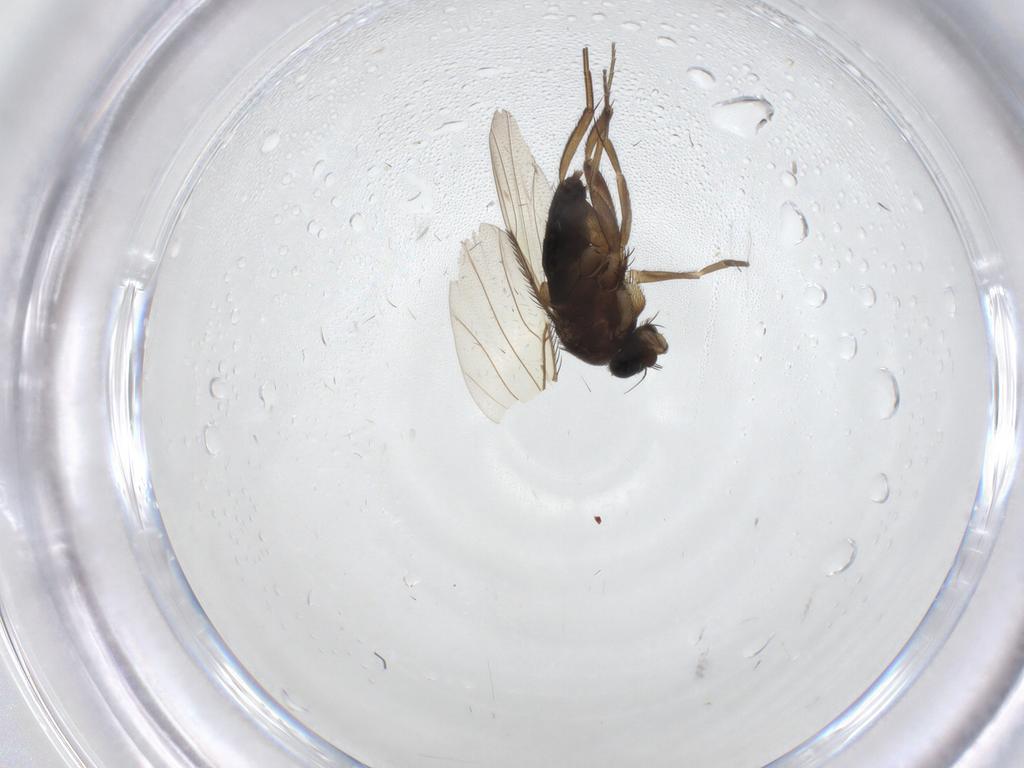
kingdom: Animalia
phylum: Arthropoda
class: Insecta
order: Diptera
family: Phoridae
